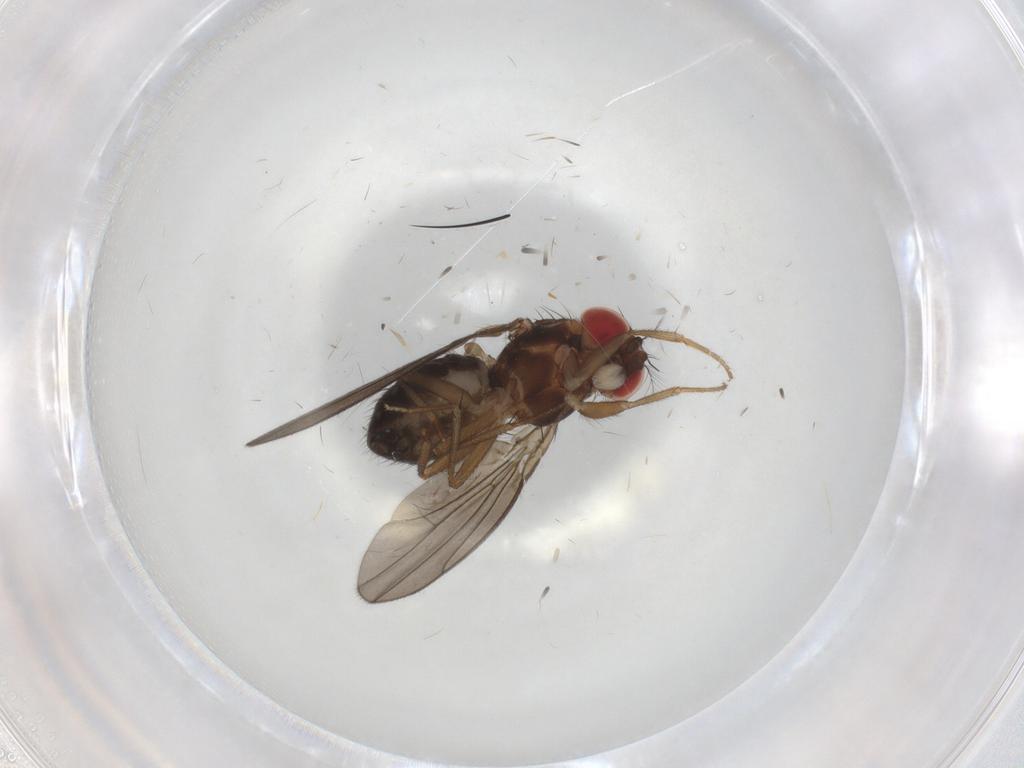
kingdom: Animalia
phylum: Arthropoda
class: Insecta
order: Diptera
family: Drosophilidae
